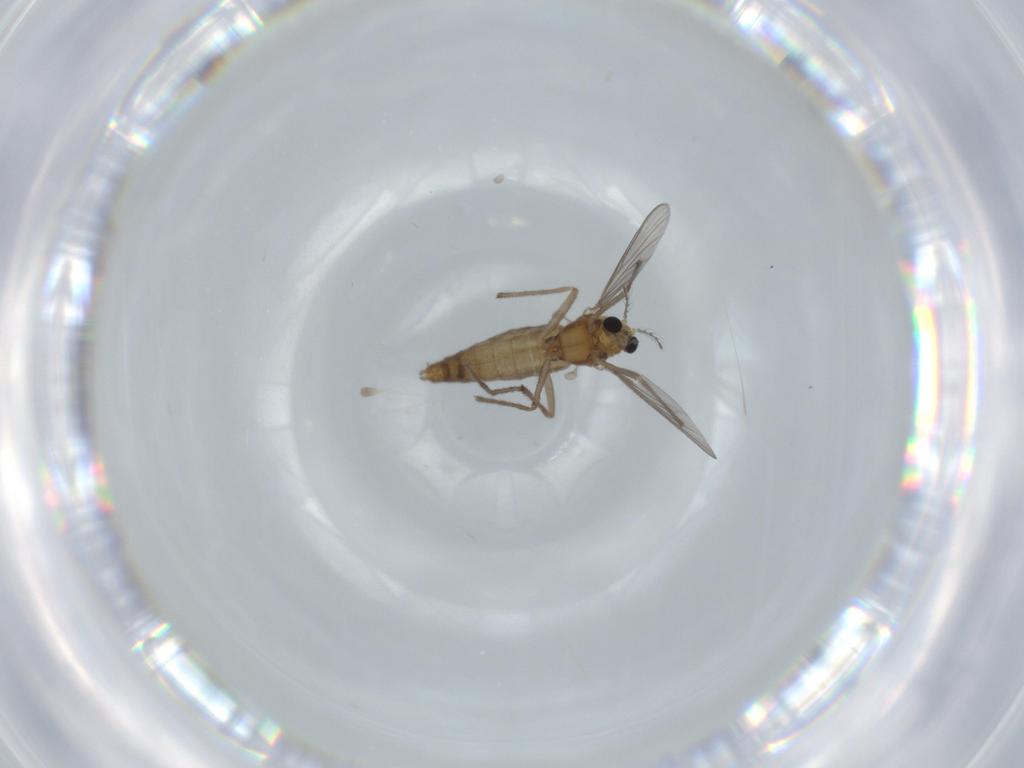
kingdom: Animalia
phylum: Arthropoda
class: Insecta
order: Diptera
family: Chironomidae
